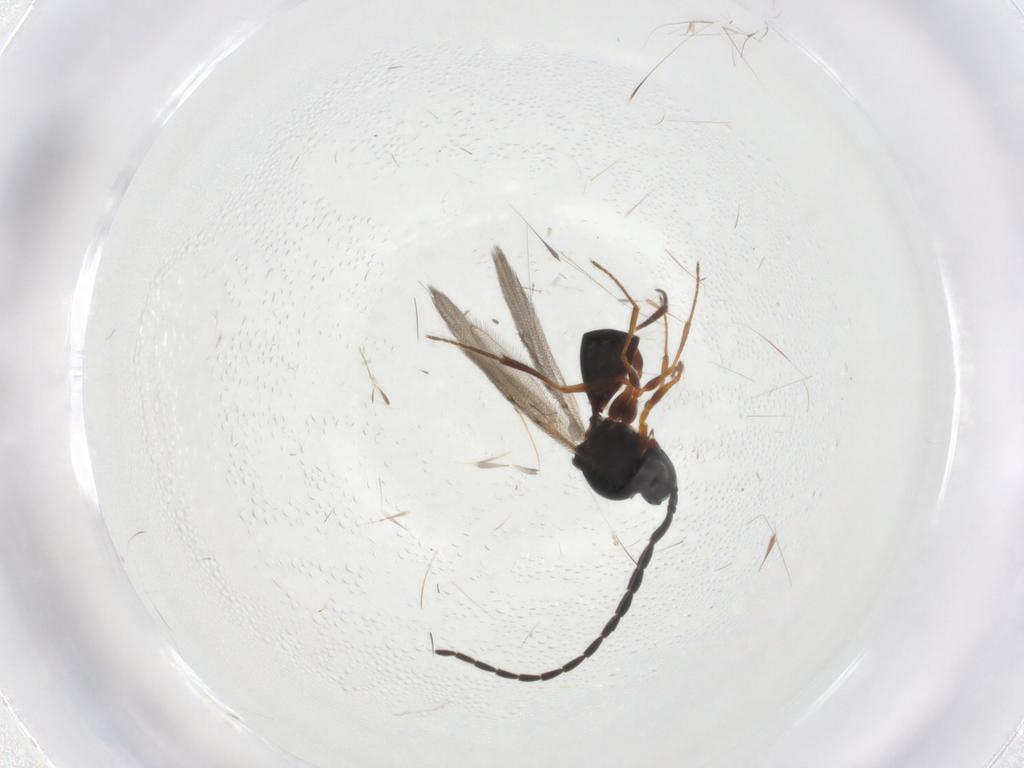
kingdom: Animalia
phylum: Arthropoda
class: Insecta
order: Hymenoptera
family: Figitidae
